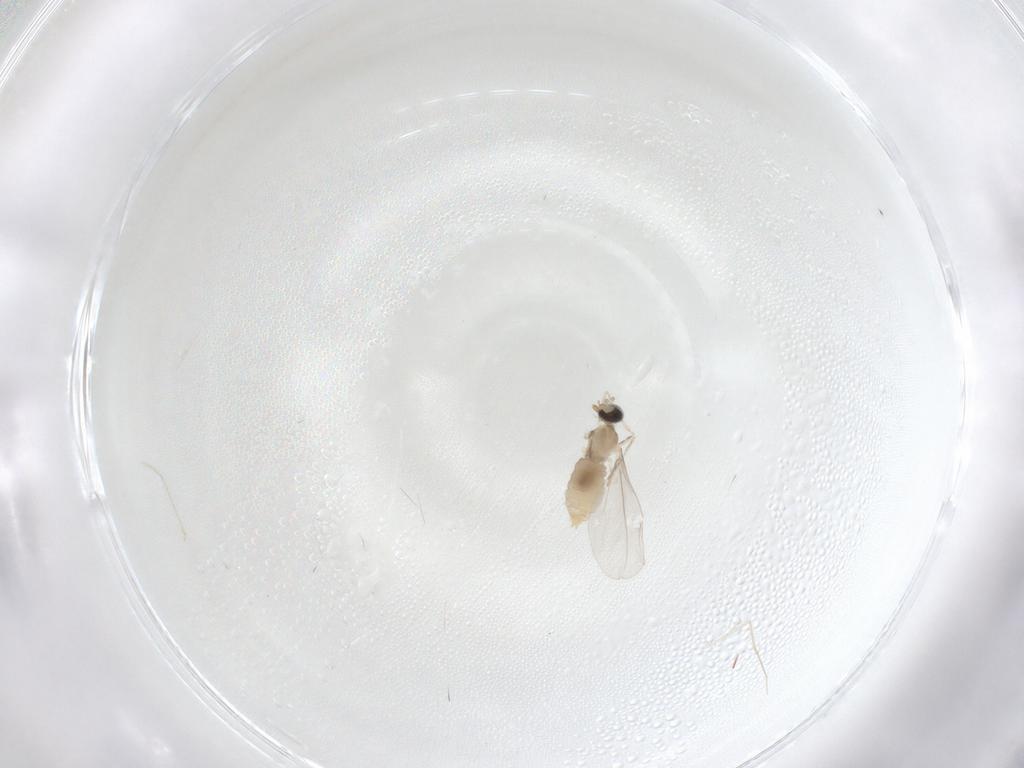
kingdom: Animalia
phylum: Arthropoda
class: Insecta
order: Diptera
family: Cecidomyiidae
